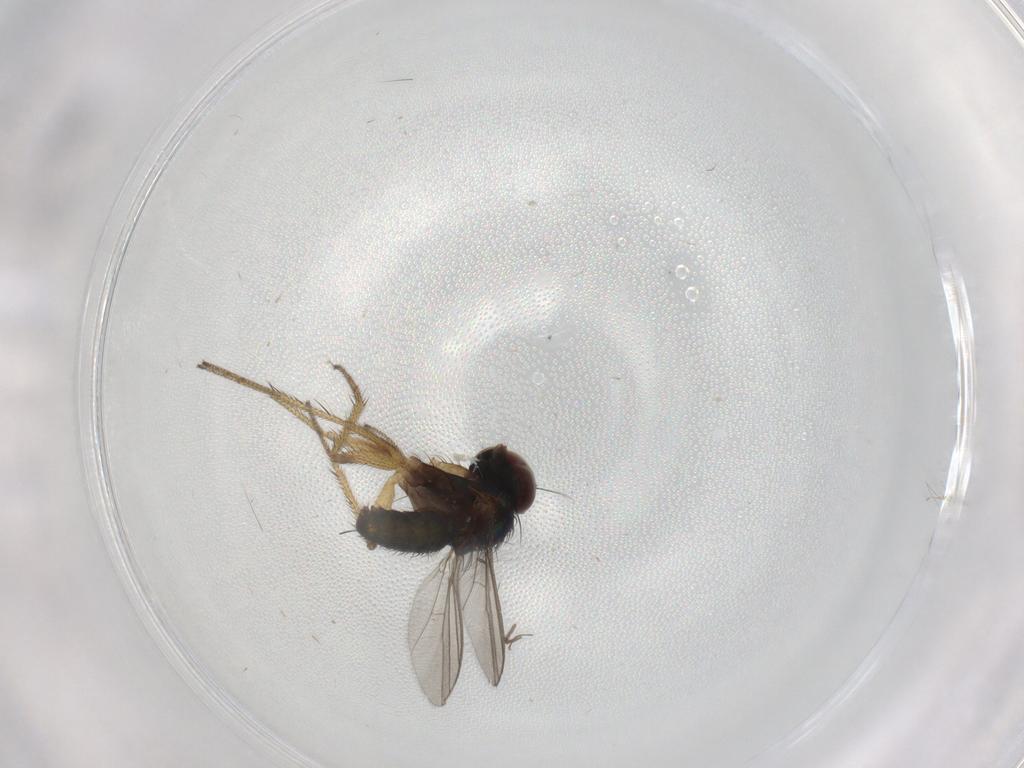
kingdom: Animalia
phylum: Arthropoda
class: Insecta
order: Diptera
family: Dolichopodidae
